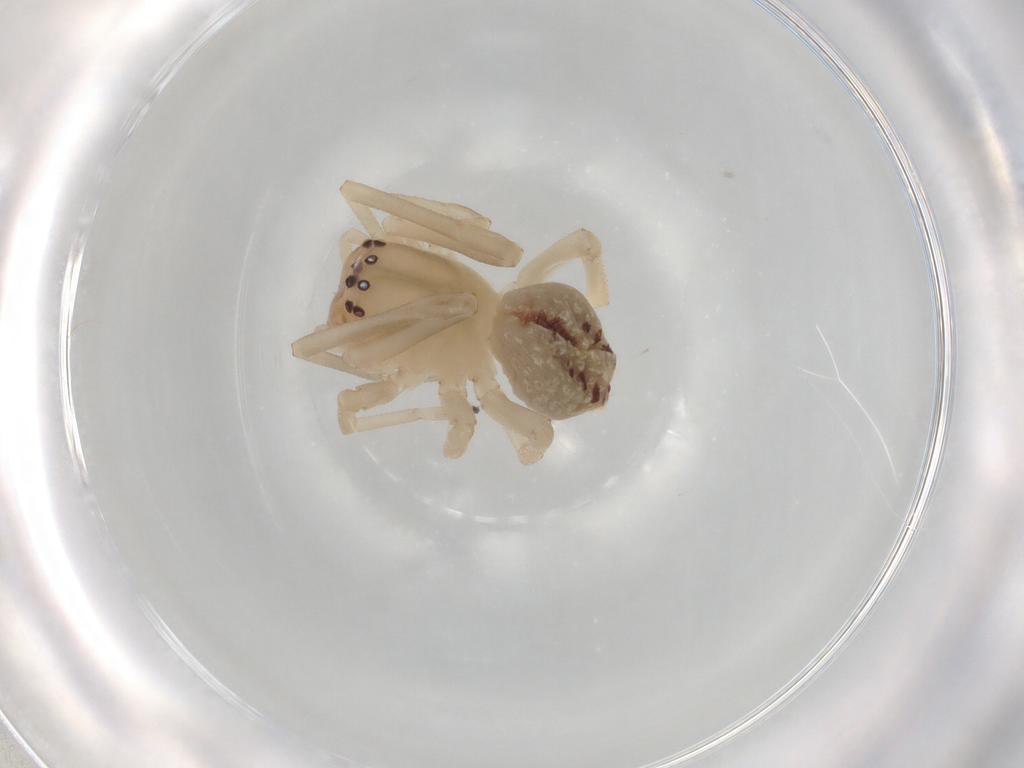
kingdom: Animalia
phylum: Arthropoda
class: Arachnida
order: Araneae
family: Cheiracanthiidae
